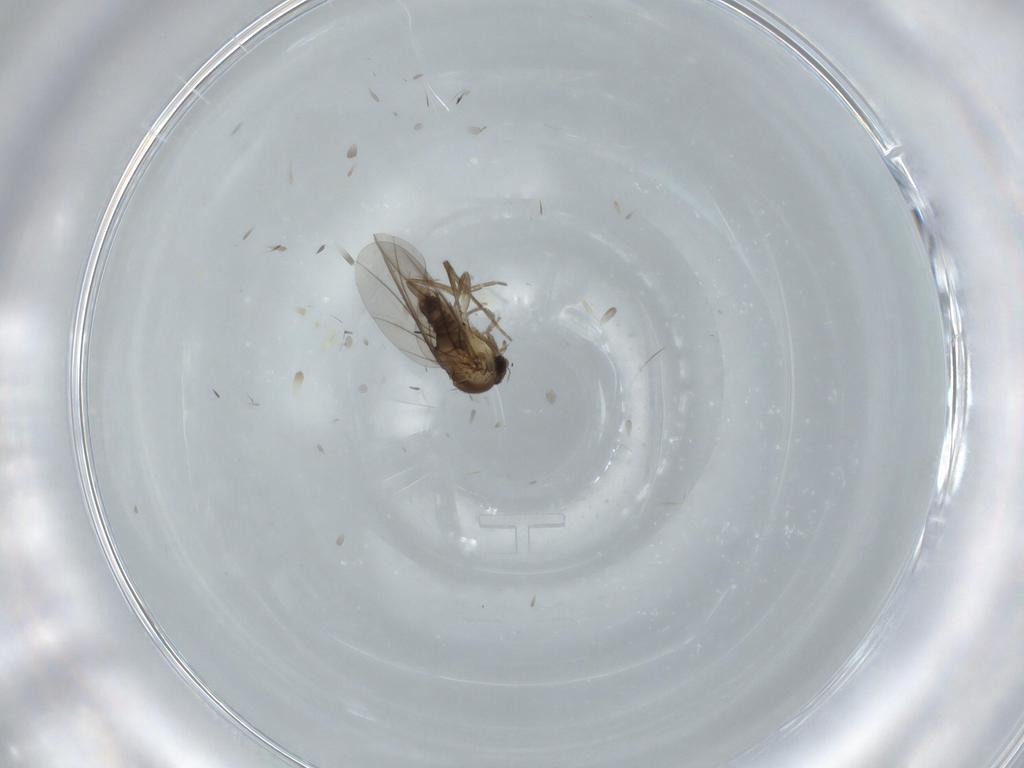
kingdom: Animalia
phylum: Arthropoda
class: Insecta
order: Diptera
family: Phoridae
